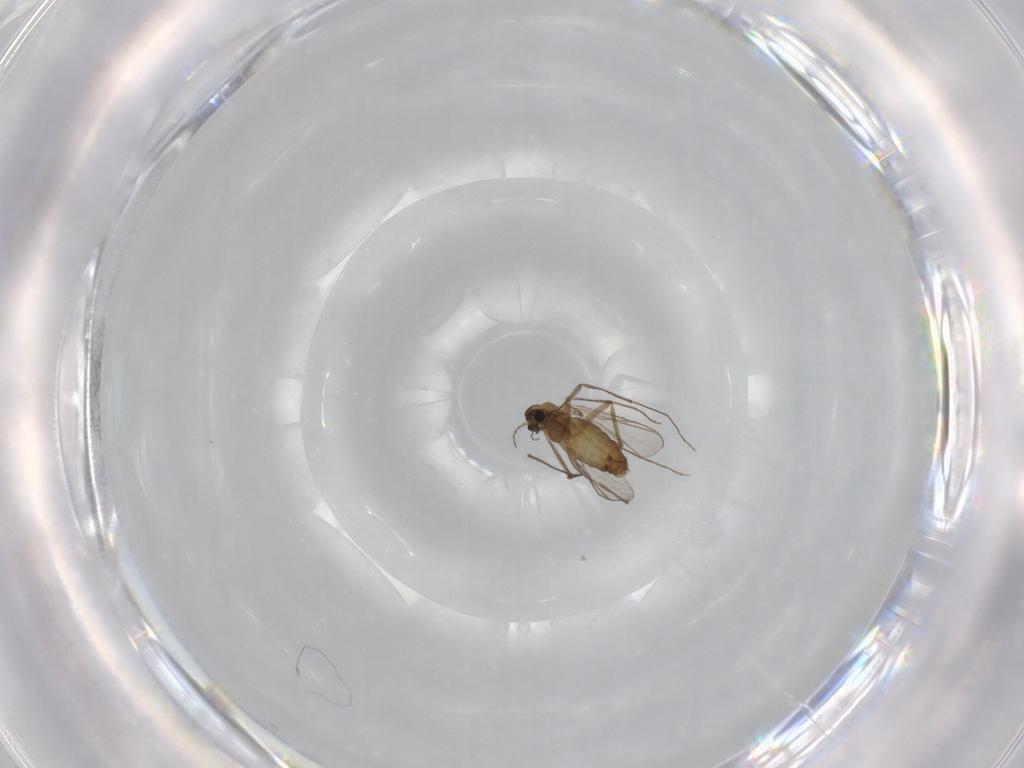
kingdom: Animalia
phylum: Arthropoda
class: Insecta
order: Diptera
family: Chironomidae
